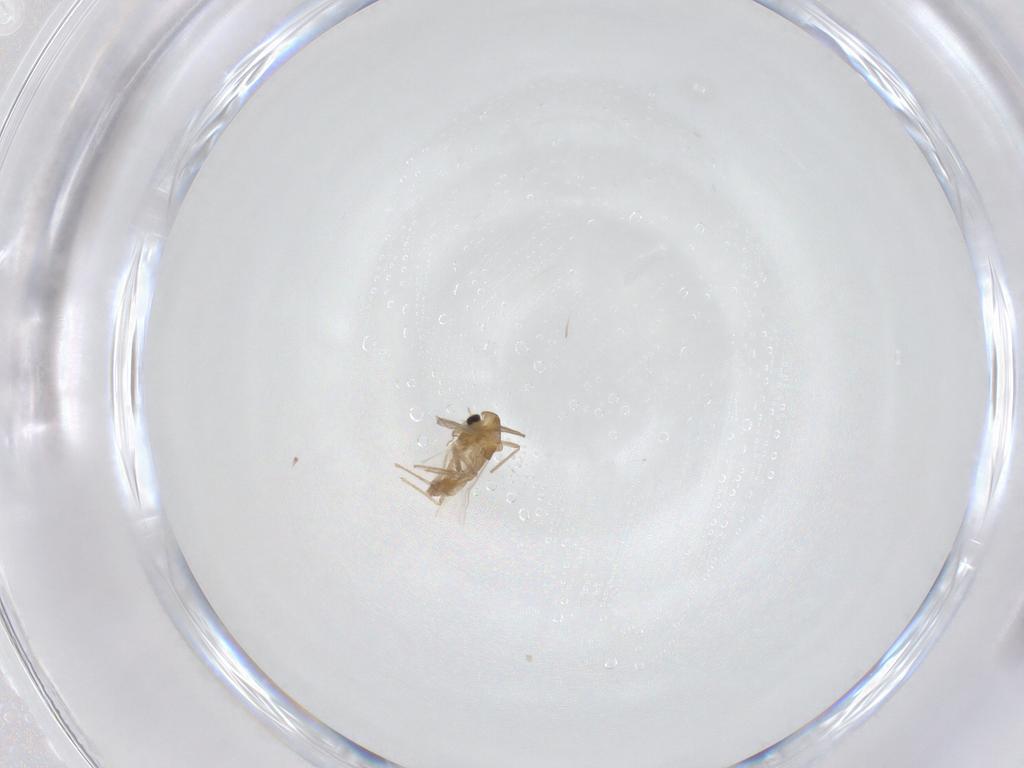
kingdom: Animalia
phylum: Arthropoda
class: Insecta
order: Diptera
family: Chironomidae
